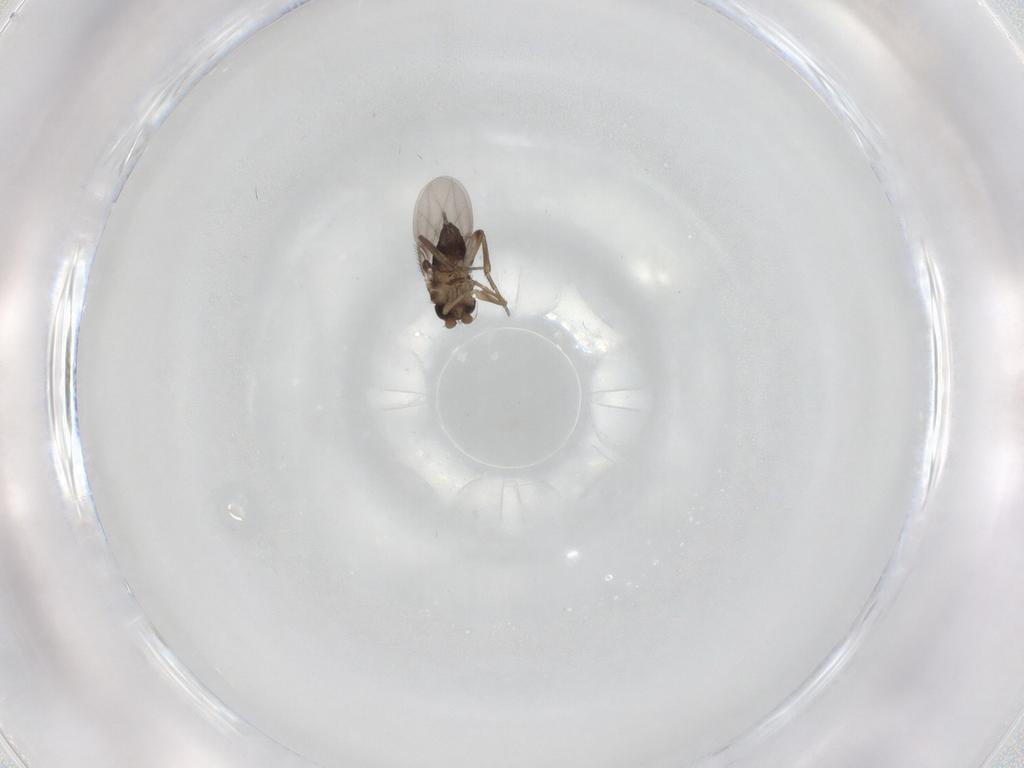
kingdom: Animalia
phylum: Arthropoda
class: Insecta
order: Diptera
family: Phoridae
